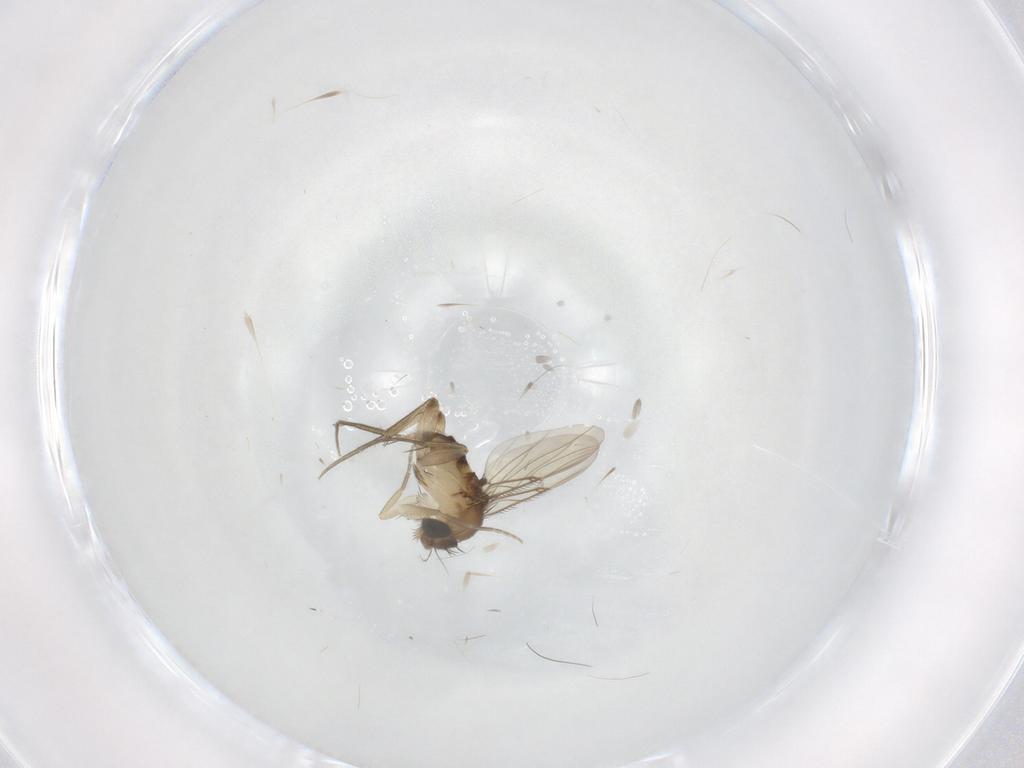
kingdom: Animalia
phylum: Arthropoda
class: Insecta
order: Diptera
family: Phoridae
